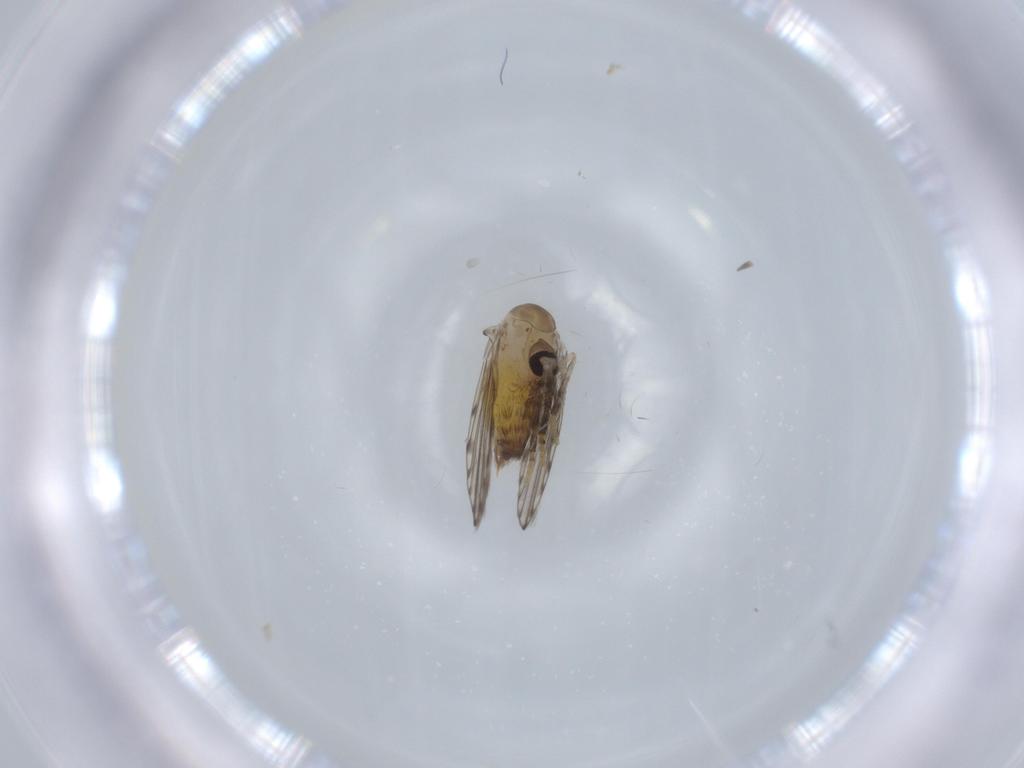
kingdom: Animalia
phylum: Arthropoda
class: Insecta
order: Diptera
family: Psychodidae
